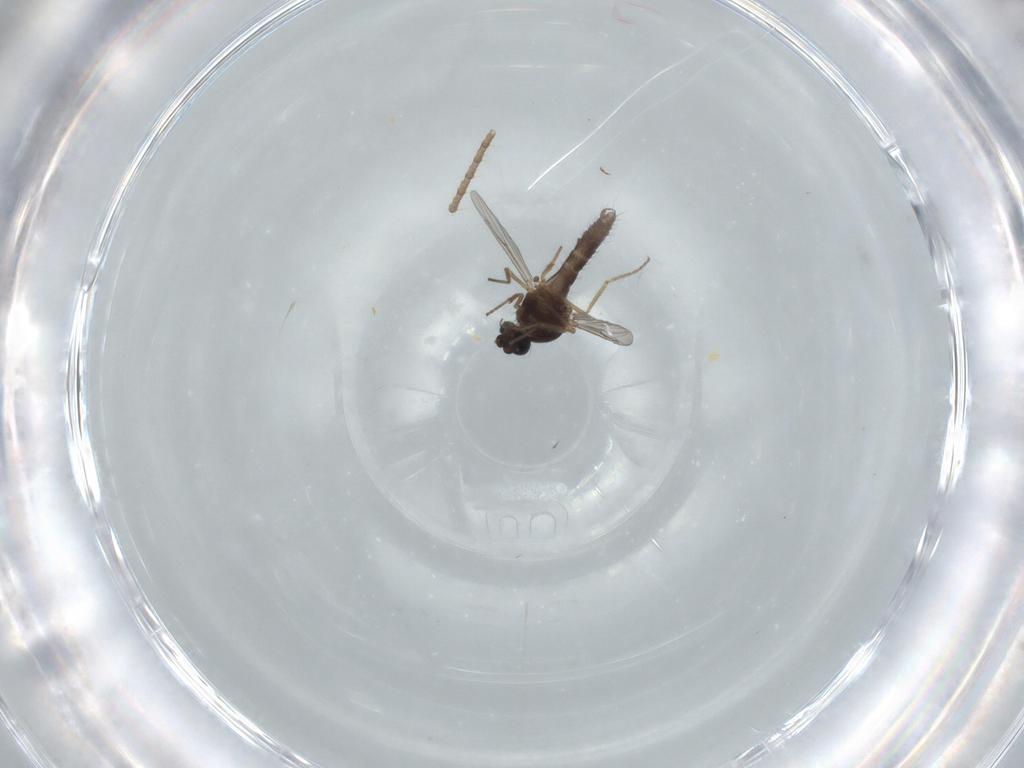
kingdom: Animalia
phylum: Arthropoda
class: Insecta
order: Diptera
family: Ceratopogonidae
